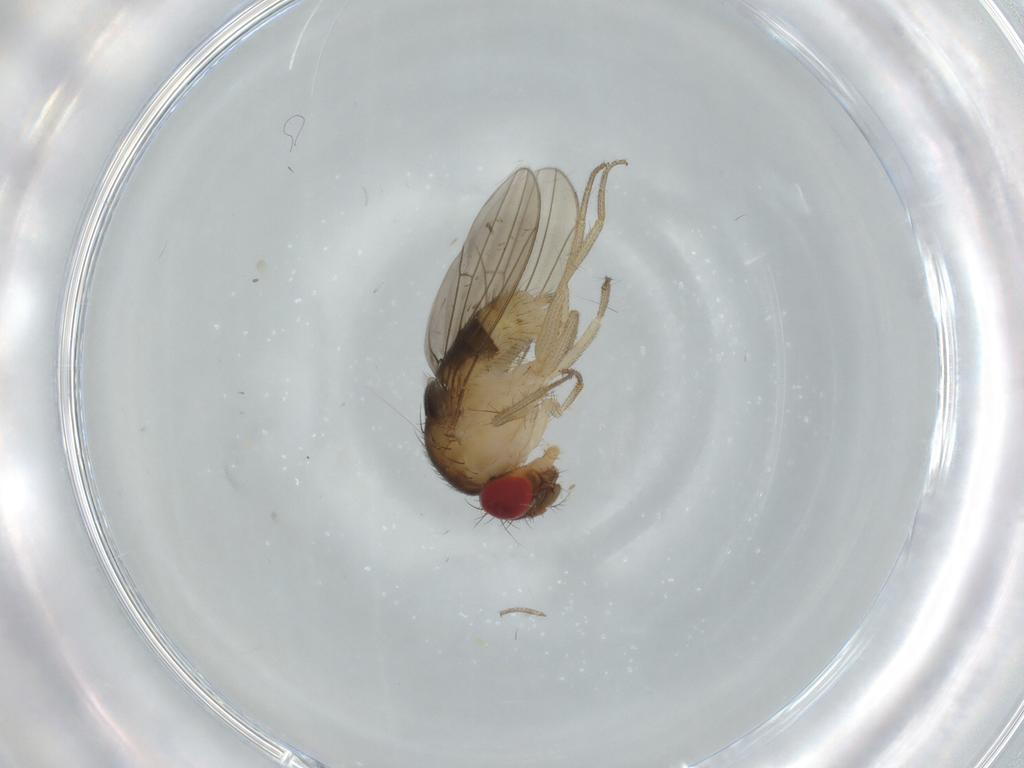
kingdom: Animalia
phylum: Arthropoda
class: Insecta
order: Diptera
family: Drosophilidae
